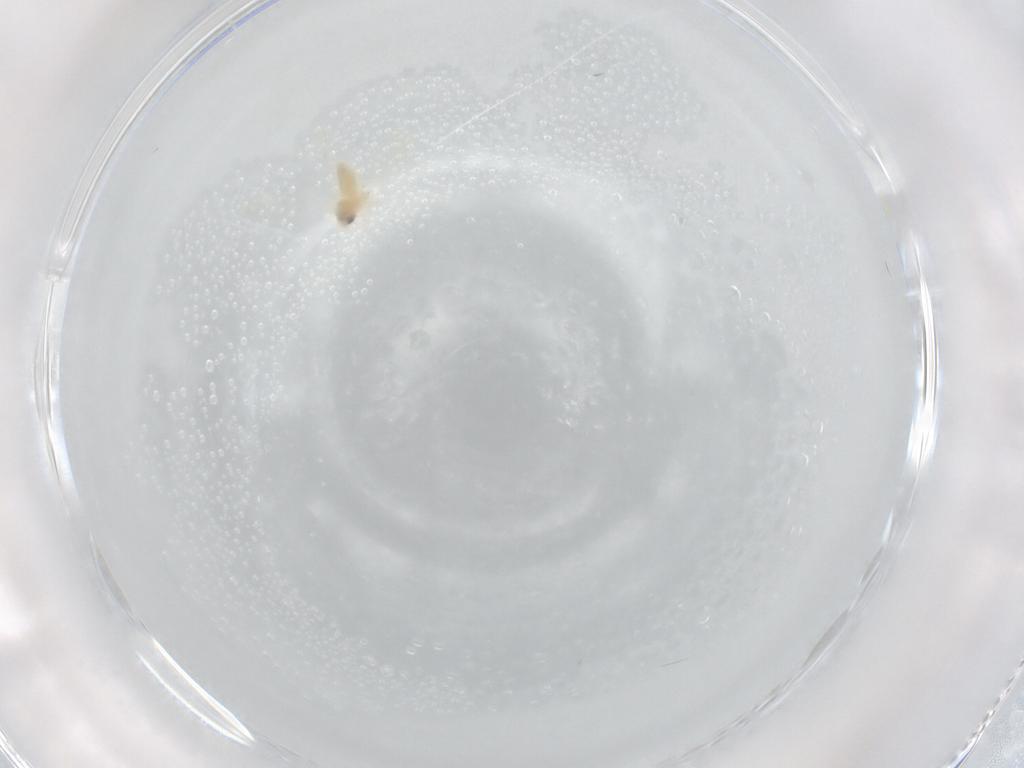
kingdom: Animalia
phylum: Arthropoda
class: Insecta
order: Hemiptera
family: Aleyrodidae
